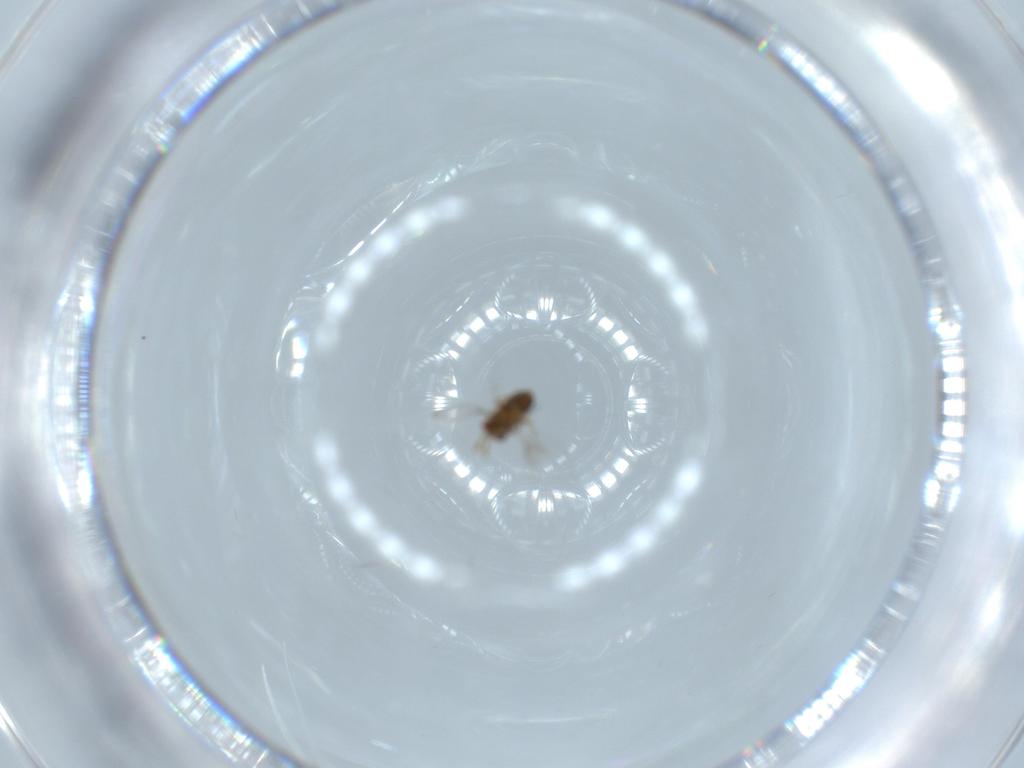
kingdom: Animalia
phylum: Arthropoda
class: Insecta
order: Hymenoptera
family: Trichogrammatidae
